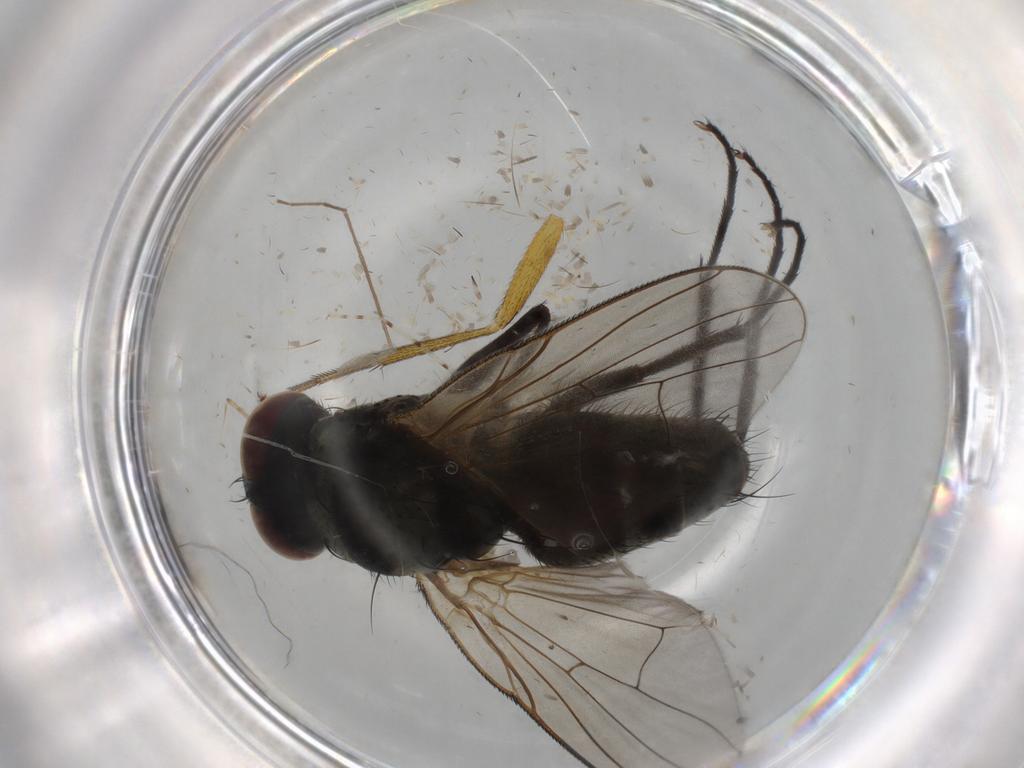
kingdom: Animalia
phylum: Arthropoda
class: Insecta
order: Diptera
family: Muscidae
